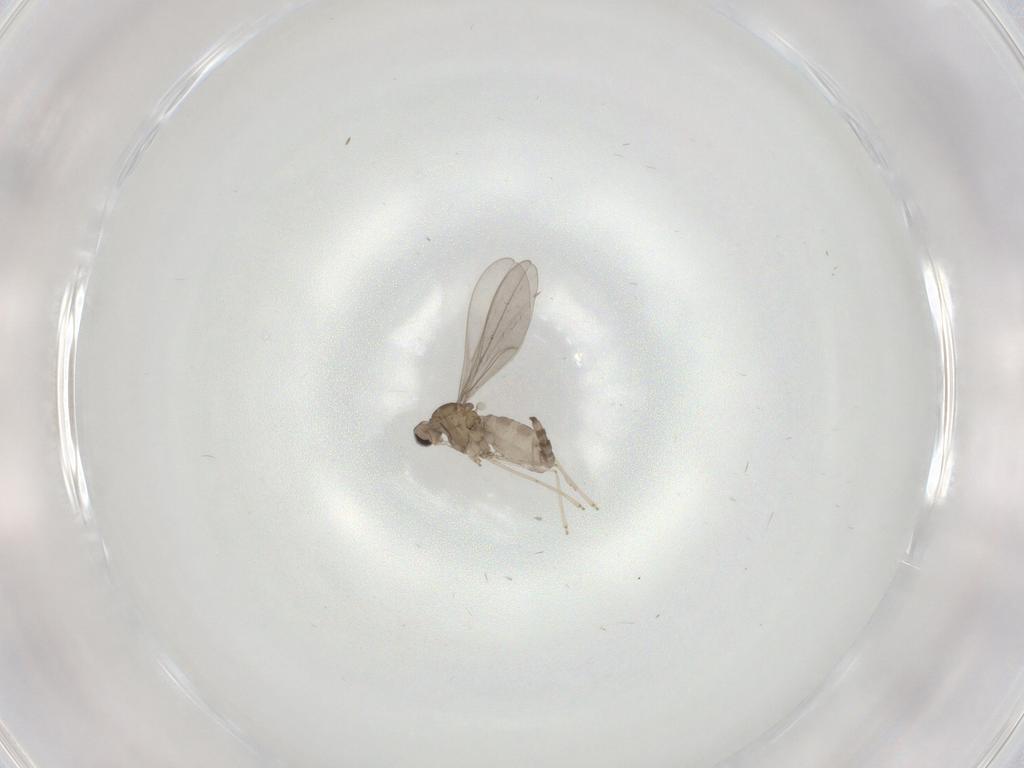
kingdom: Animalia
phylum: Arthropoda
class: Insecta
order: Diptera
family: Cecidomyiidae
